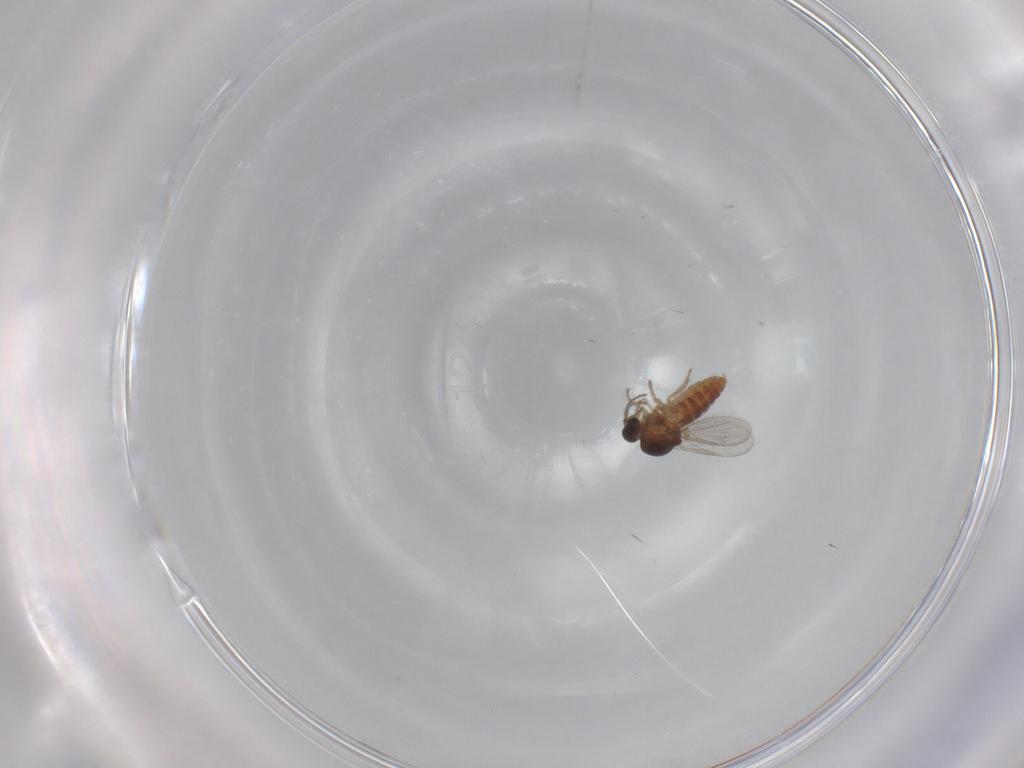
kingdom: Animalia
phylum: Arthropoda
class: Insecta
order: Diptera
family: Ceratopogonidae
